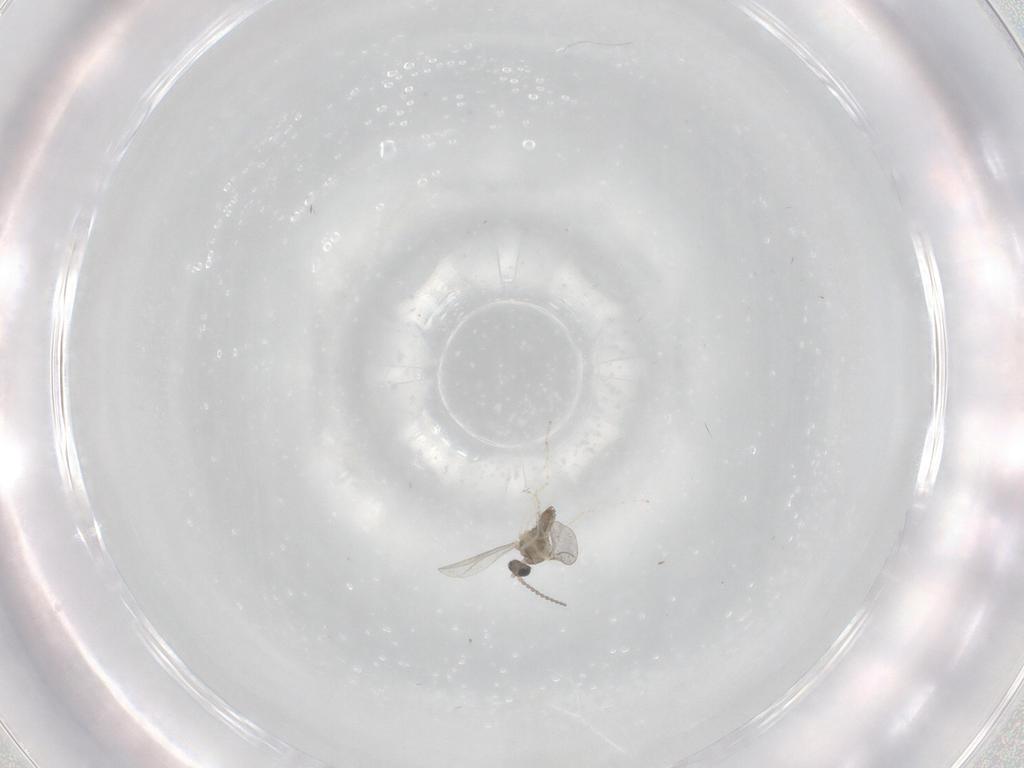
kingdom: Animalia
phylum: Arthropoda
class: Insecta
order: Diptera
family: Cecidomyiidae
